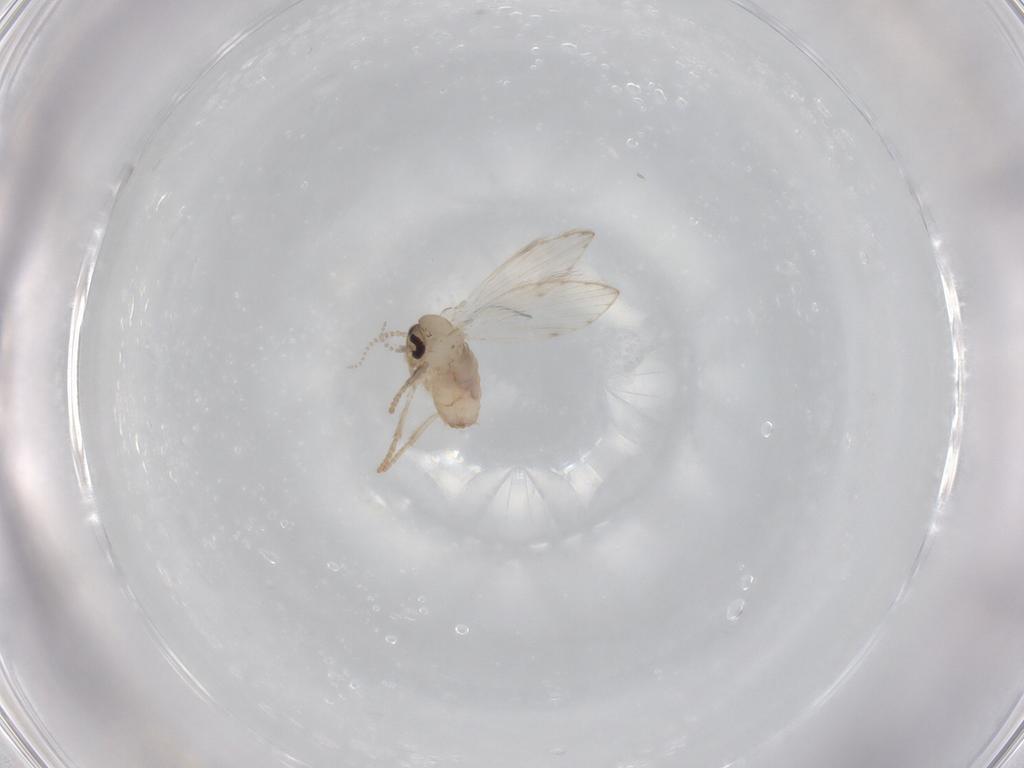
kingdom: Animalia
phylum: Arthropoda
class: Insecta
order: Diptera
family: Psychodidae
